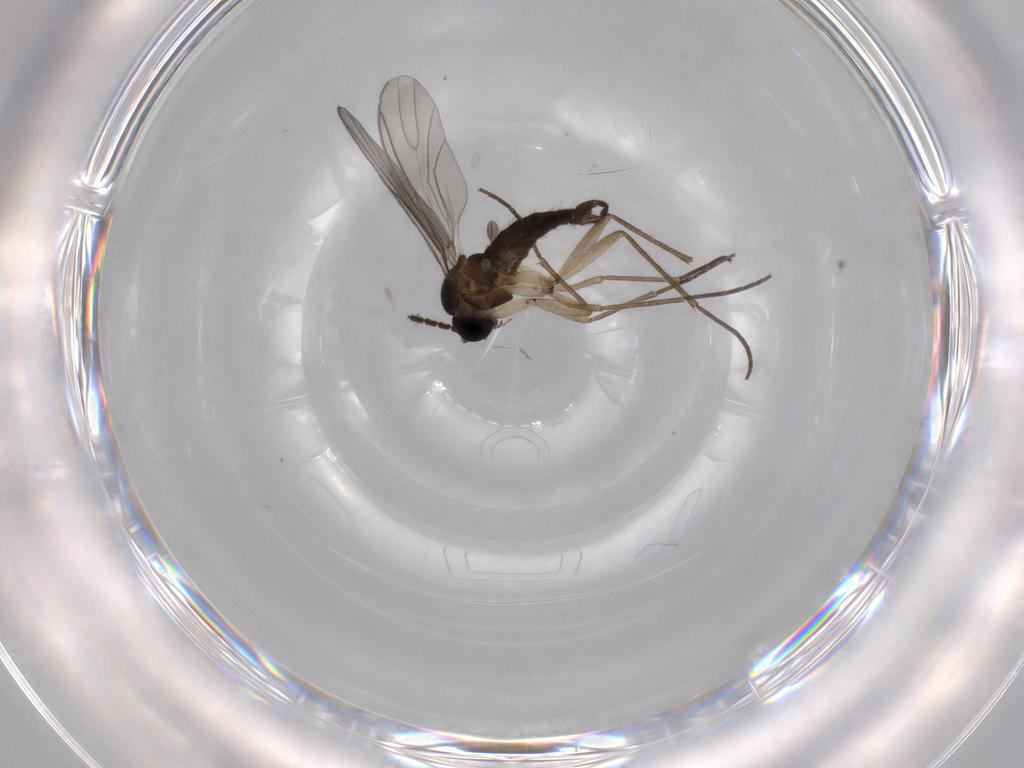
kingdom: Animalia
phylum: Arthropoda
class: Insecta
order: Diptera
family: Sciaridae
